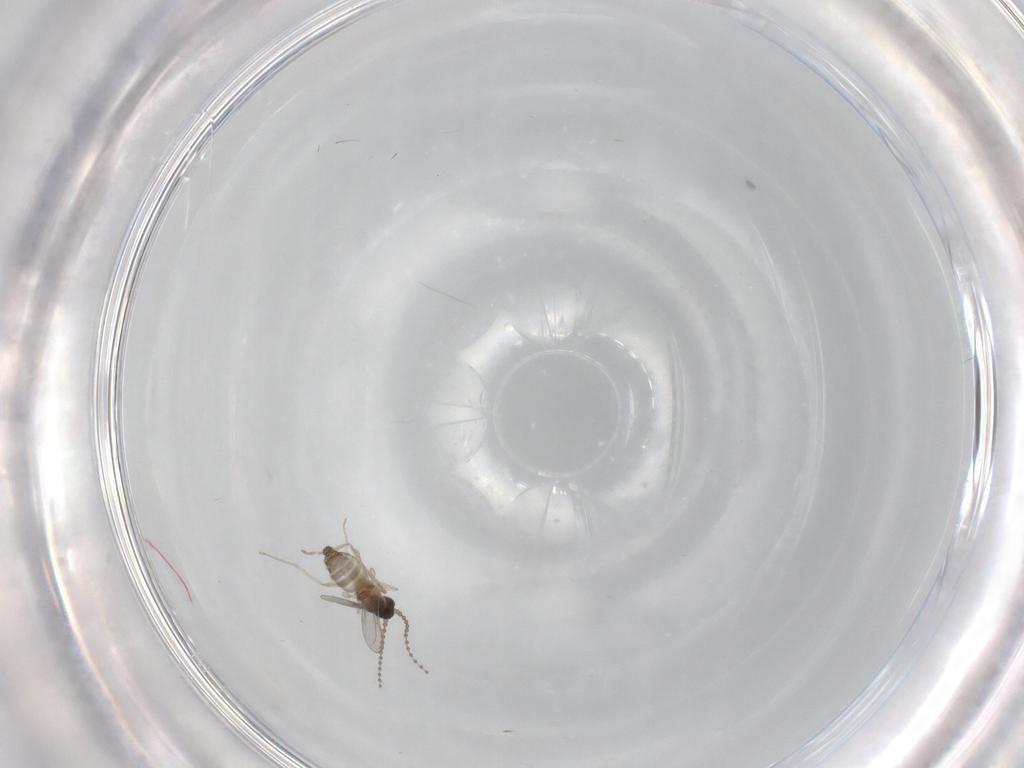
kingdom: Animalia
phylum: Arthropoda
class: Insecta
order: Diptera
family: Cecidomyiidae
